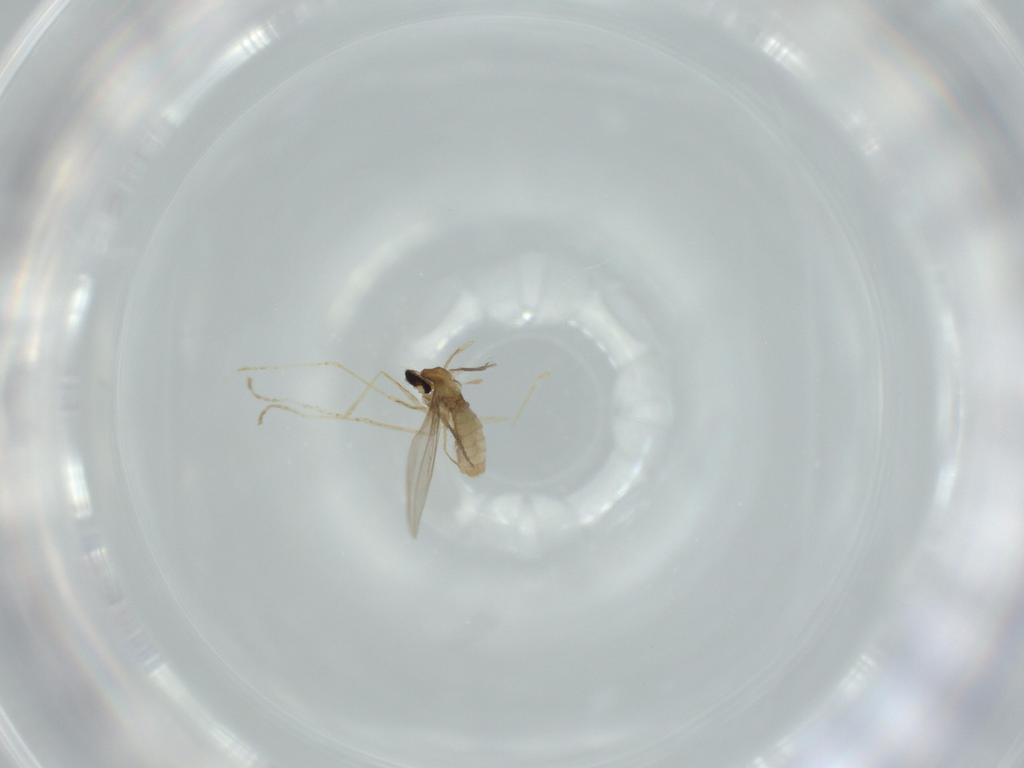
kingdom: Animalia
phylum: Arthropoda
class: Insecta
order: Diptera
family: Cecidomyiidae
